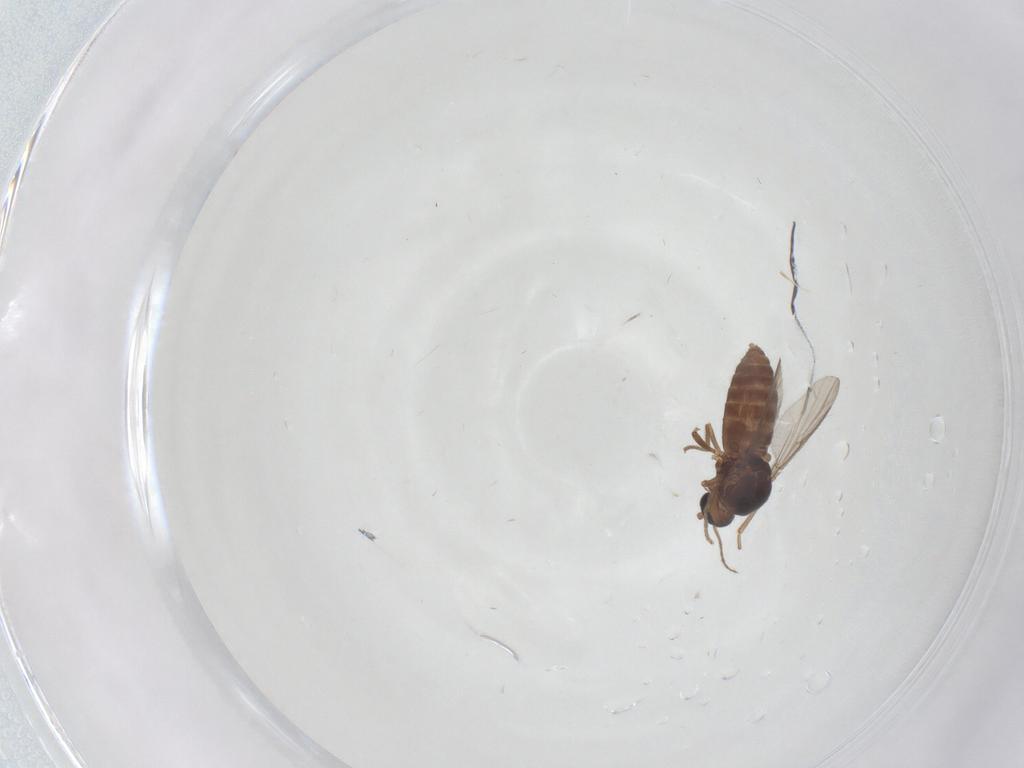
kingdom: Animalia
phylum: Arthropoda
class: Insecta
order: Diptera
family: Ceratopogonidae
